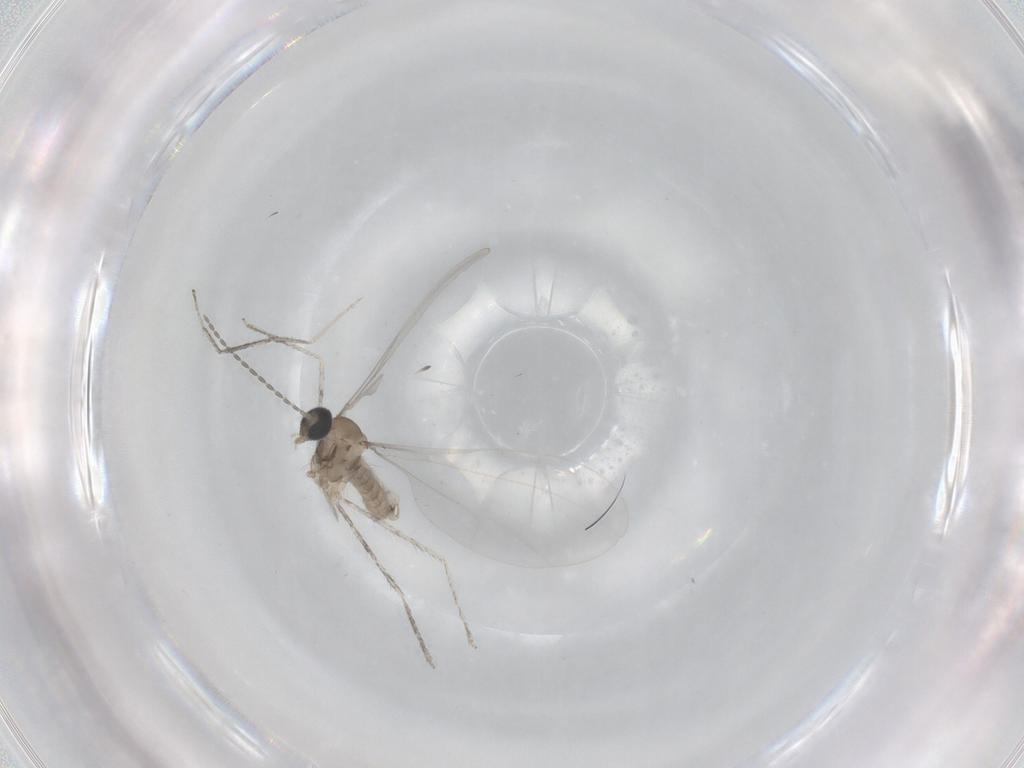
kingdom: Animalia
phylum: Arthropoda
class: Insecta
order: Diptera
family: Cecidomyiidae
